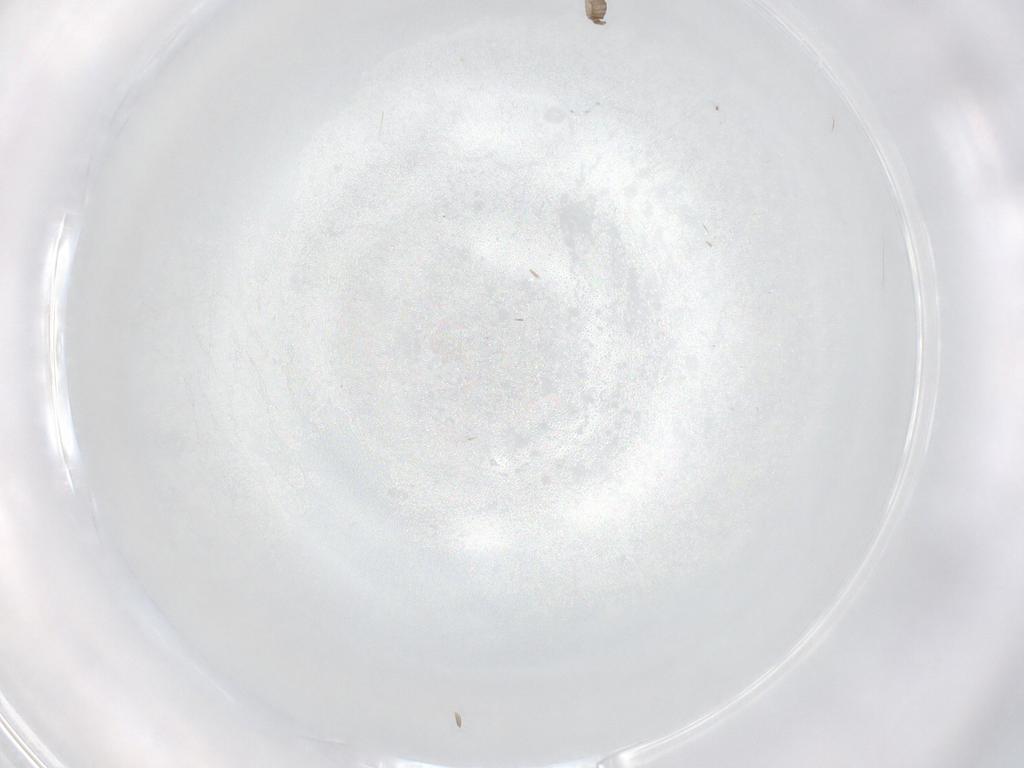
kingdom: Animalia
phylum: Arthropoda
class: Insecta
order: Diptera
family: Cecidomyiidae
